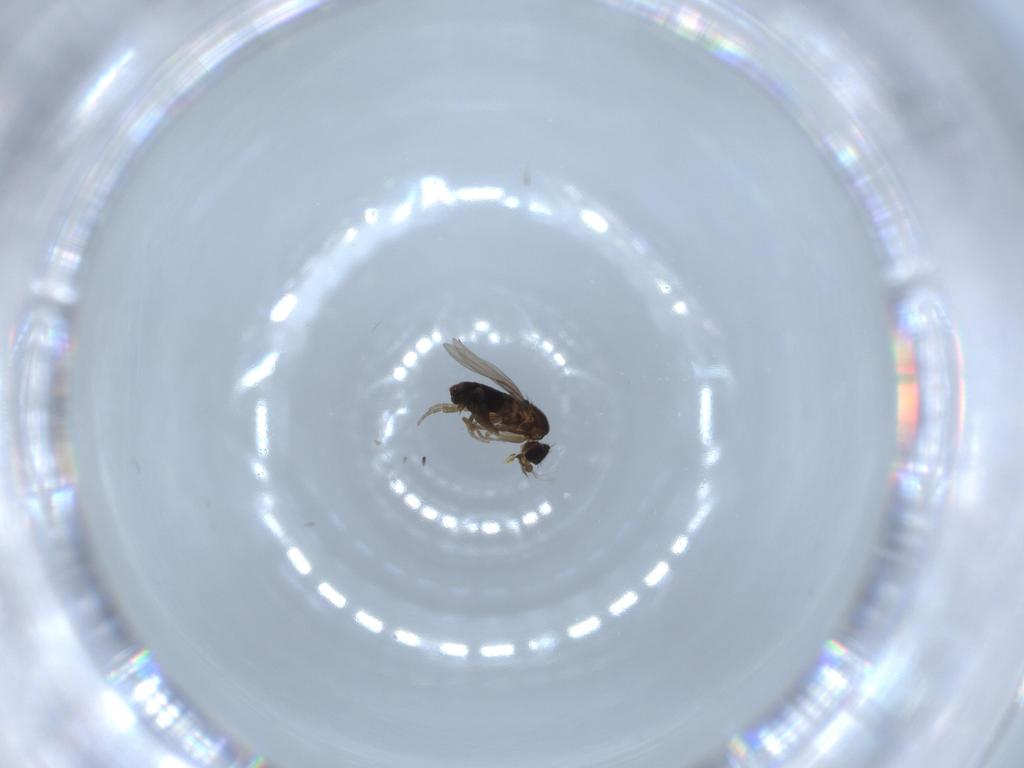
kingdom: Animalia
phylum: Arthropoda
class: Insecta
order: Diptera
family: Phoridae
